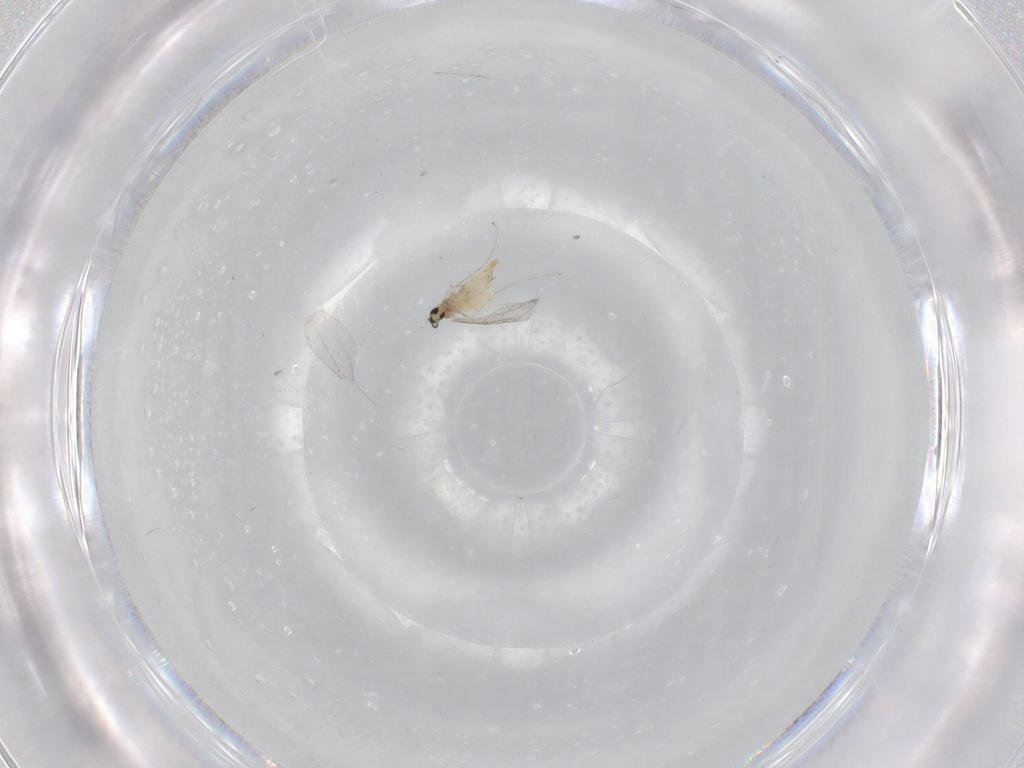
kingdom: Animalia
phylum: Arthropoda
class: Insecta
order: Diptera
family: Cecidomyiidae
